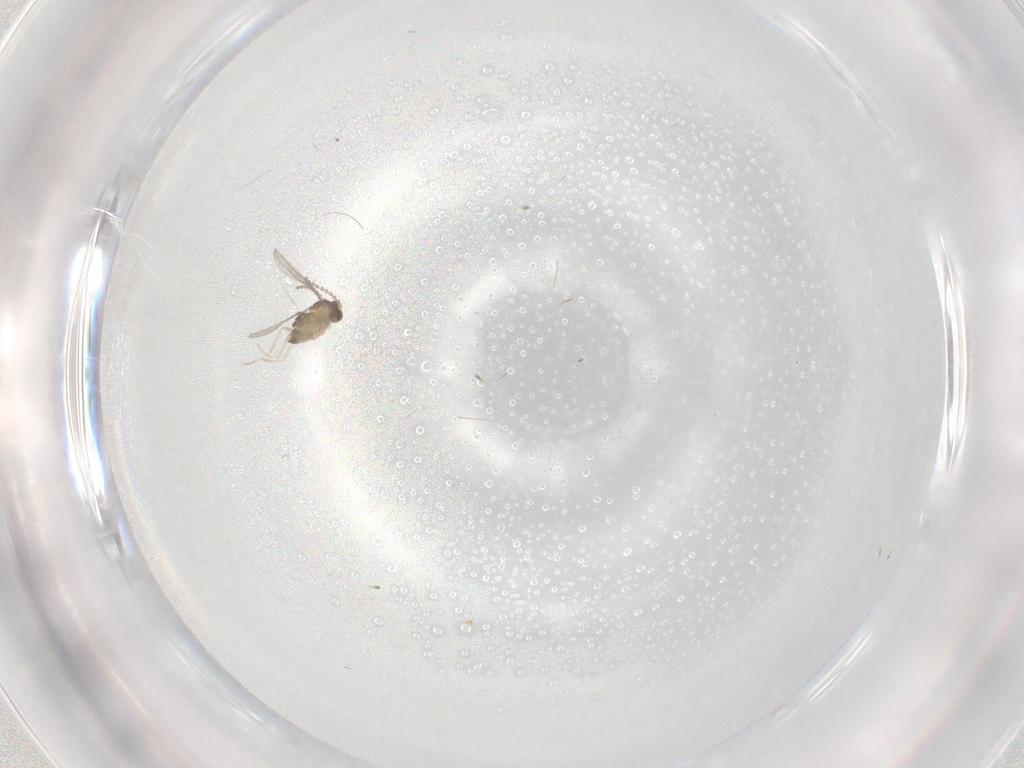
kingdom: Animalia
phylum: Arthropoda
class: Insecta
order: Diptera
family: Cecidomyiidae
